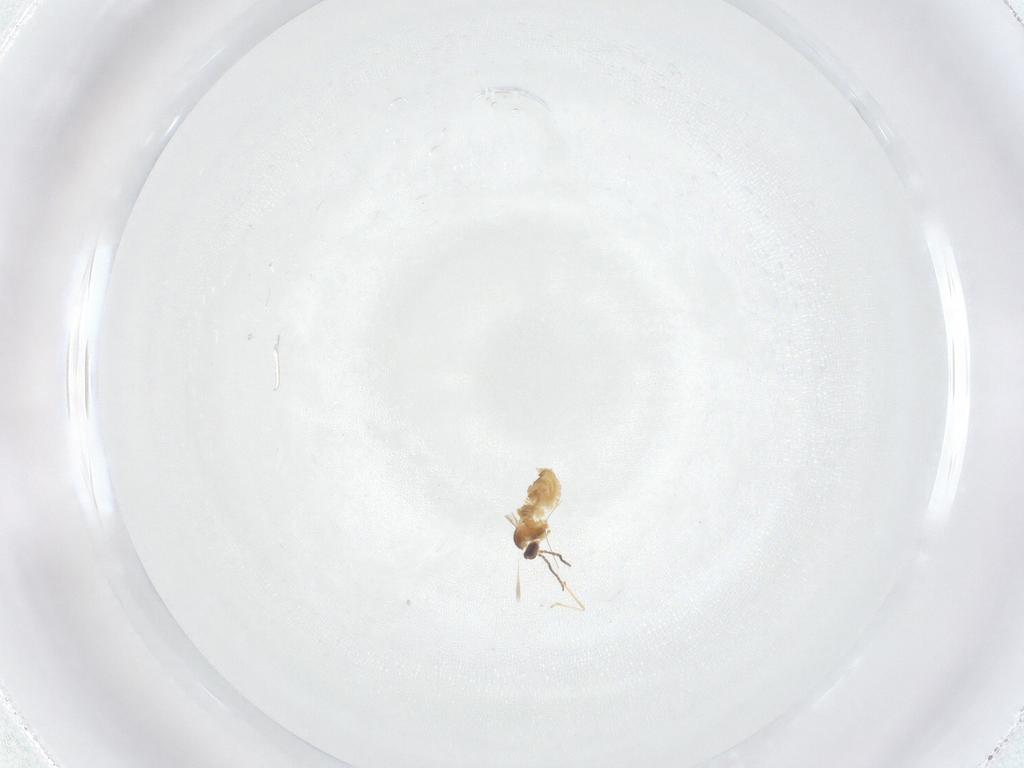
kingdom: Animalia
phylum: Arthropoda
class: Insecta
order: Diptera
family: Cecidomyiidae
